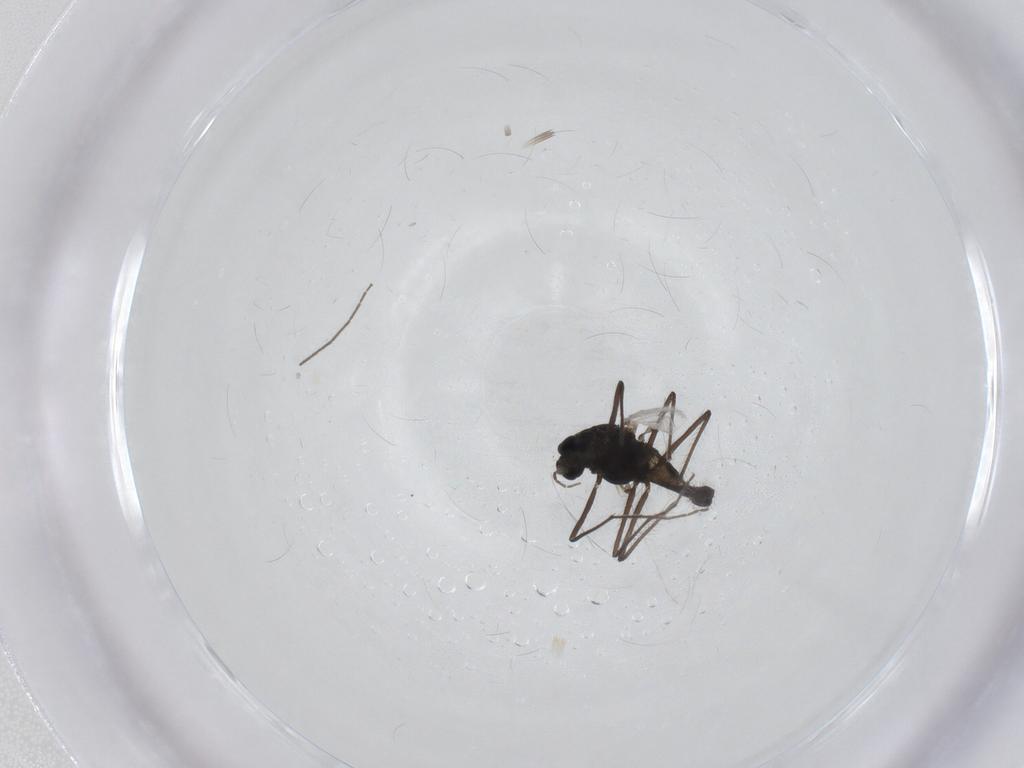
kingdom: Animalia
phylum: Arthropoda
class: Insecta
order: Diptera
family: Chironomidae
